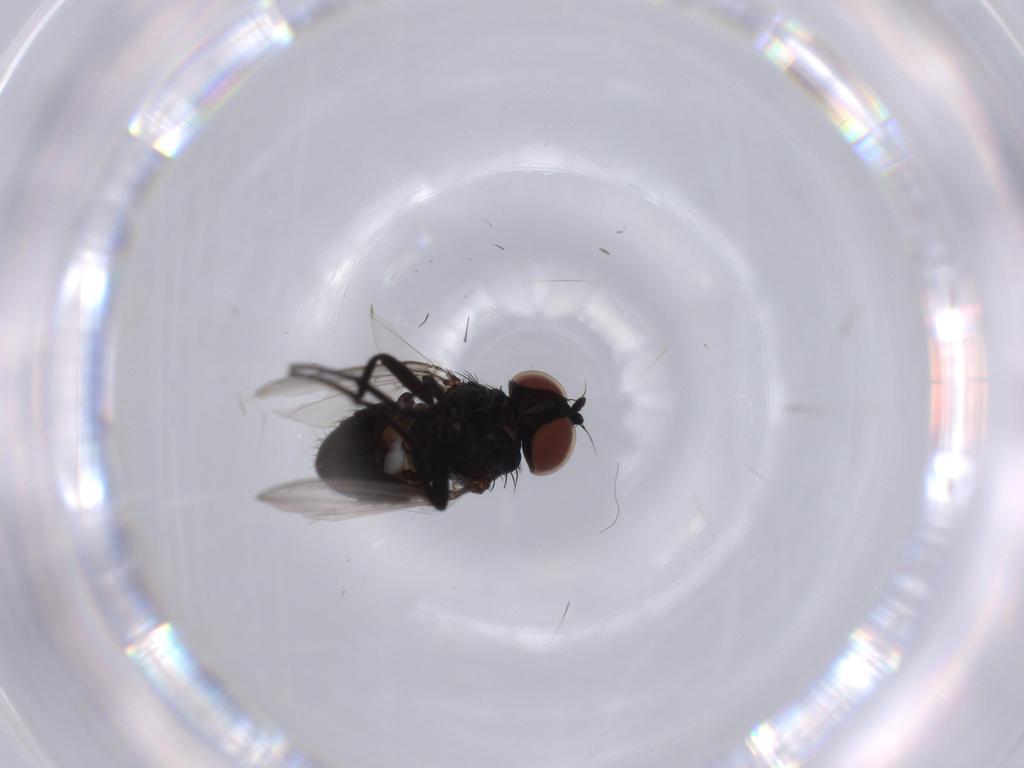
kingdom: Animalia
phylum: Arthropoda
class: Insecta
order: Diptera
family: Milichiidae
